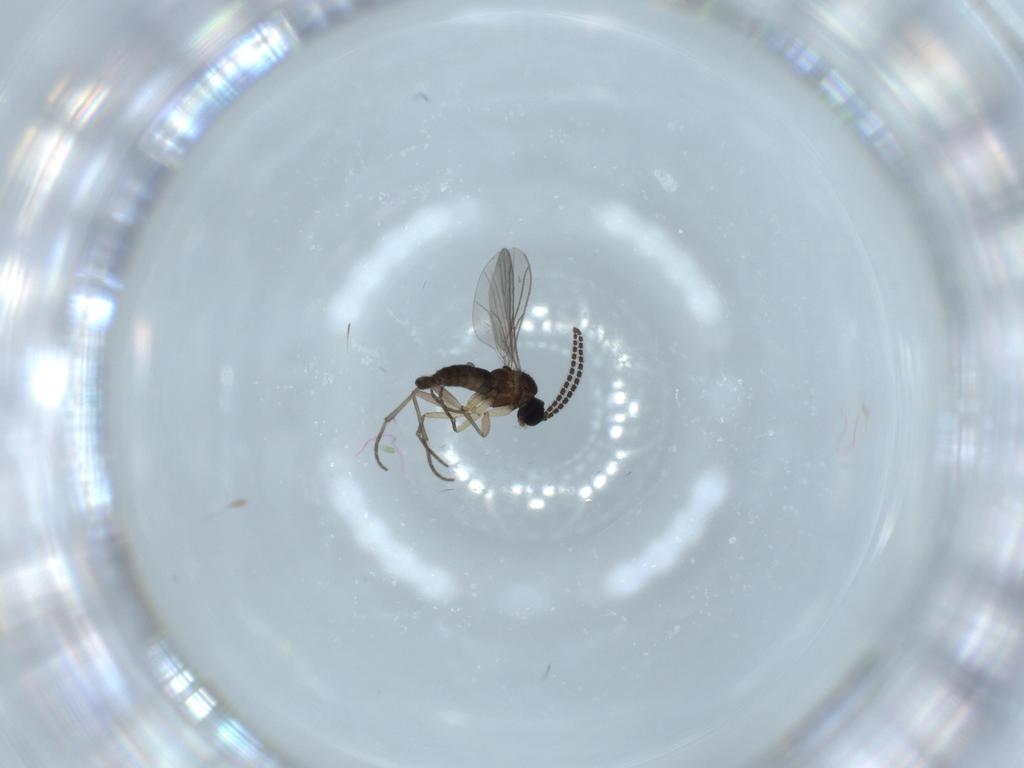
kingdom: Animalia
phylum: Arthropoda
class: Insecta
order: Diptera
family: Sciaridae
